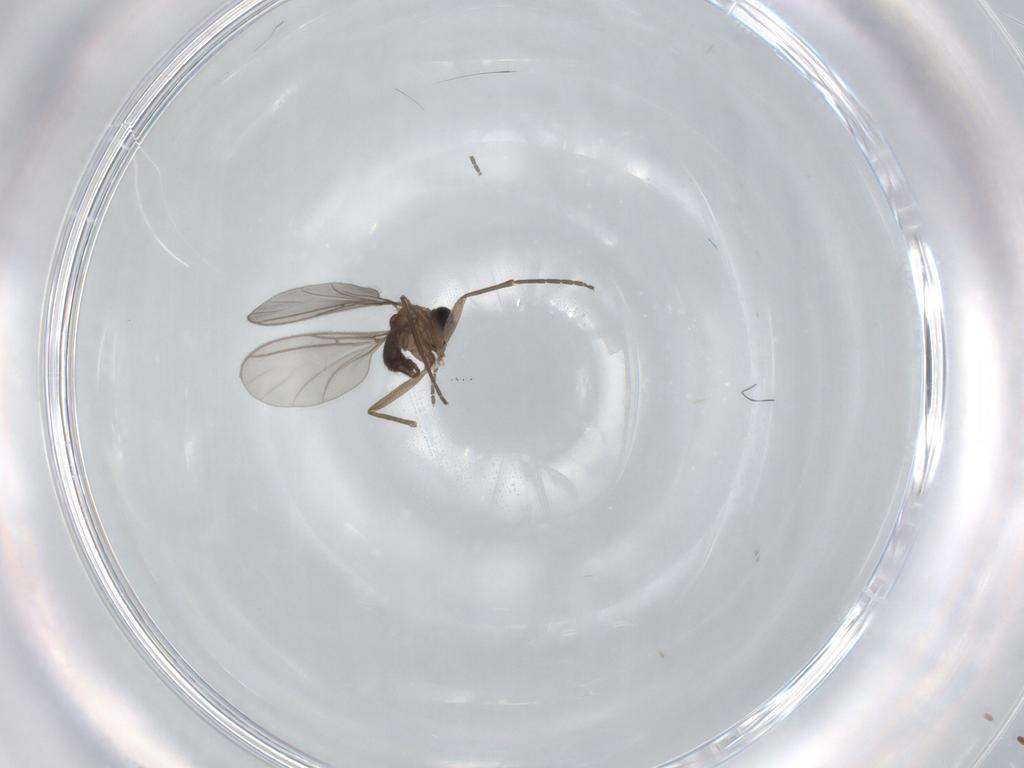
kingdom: Animalia
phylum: Arthropoda
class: Insecta
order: Diptera
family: Sciaridae
